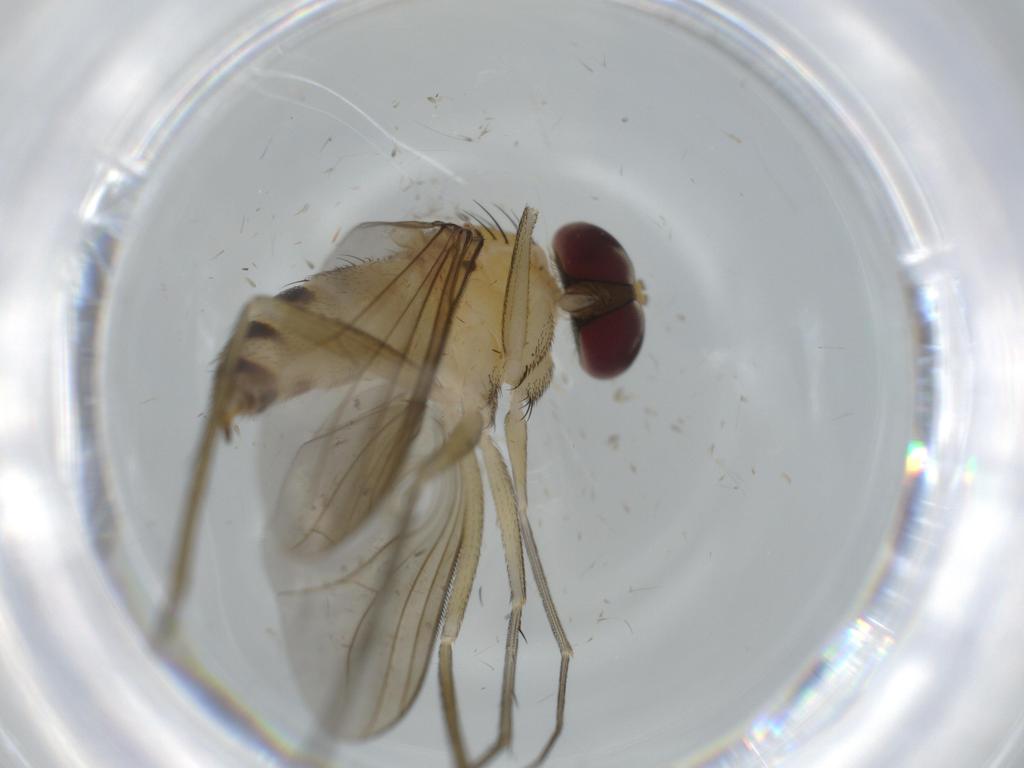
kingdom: Animalia
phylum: Arthropoda
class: Insecta
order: Diptera
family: Dolichopodidae
